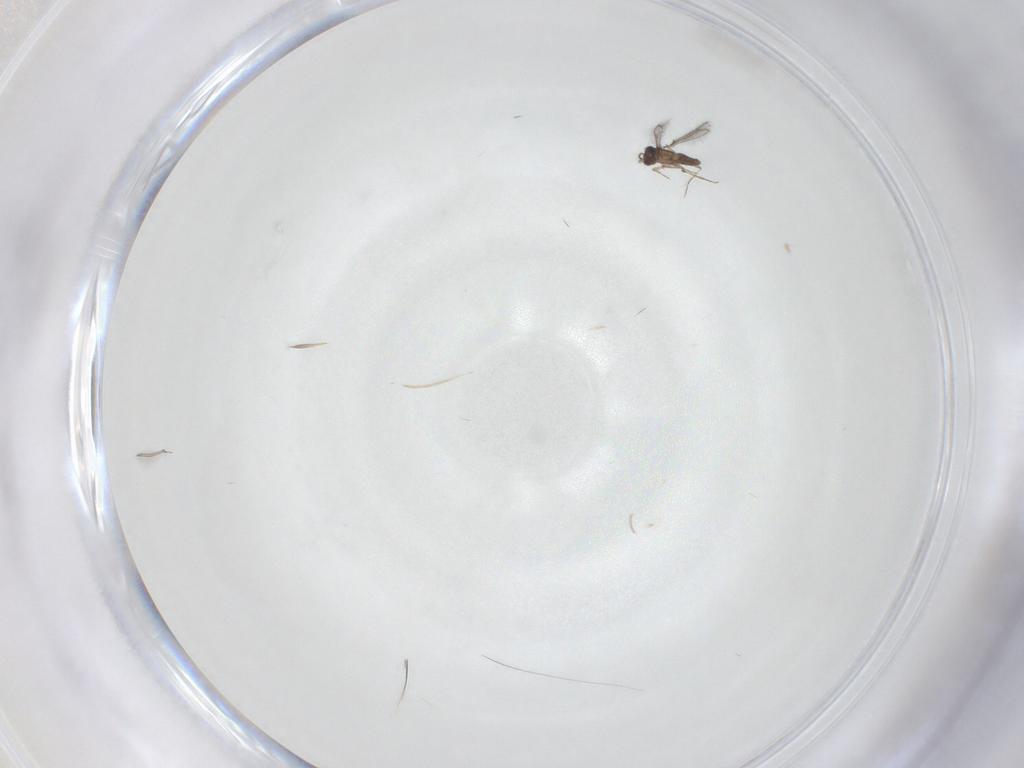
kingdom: Animalia
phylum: Arthropoda
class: Insecta
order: Hymenoptera
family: Mymaridae
